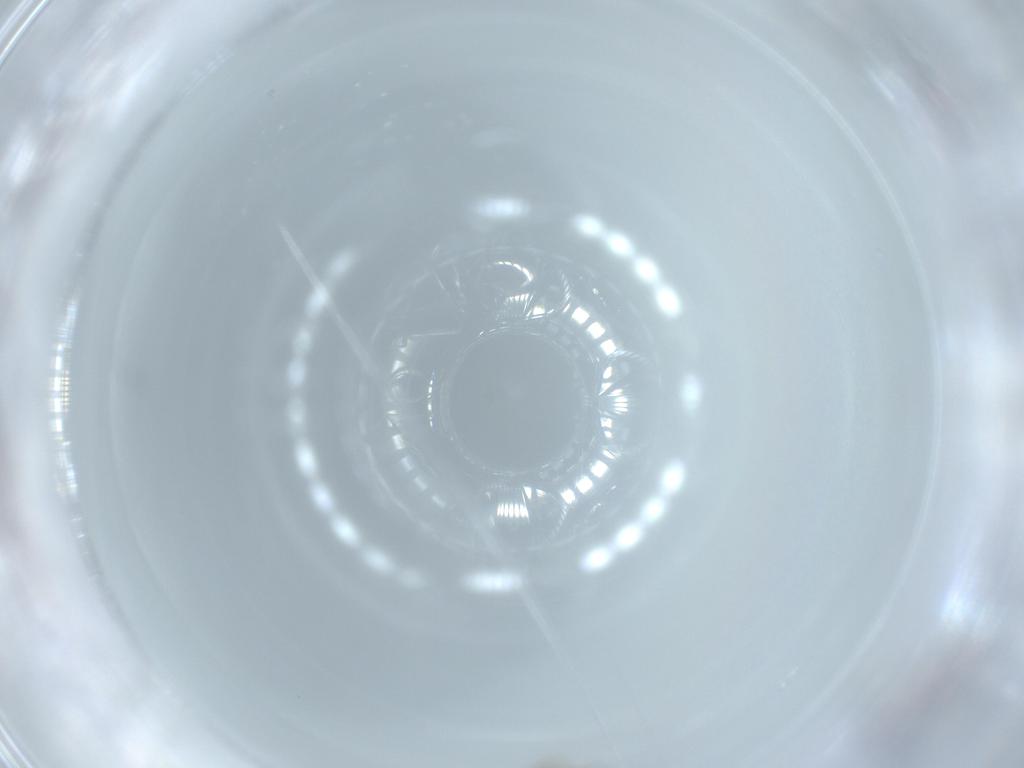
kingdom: Animalia
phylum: Arthropoda
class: Insecta
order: Hymenoptera
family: Torymidae
